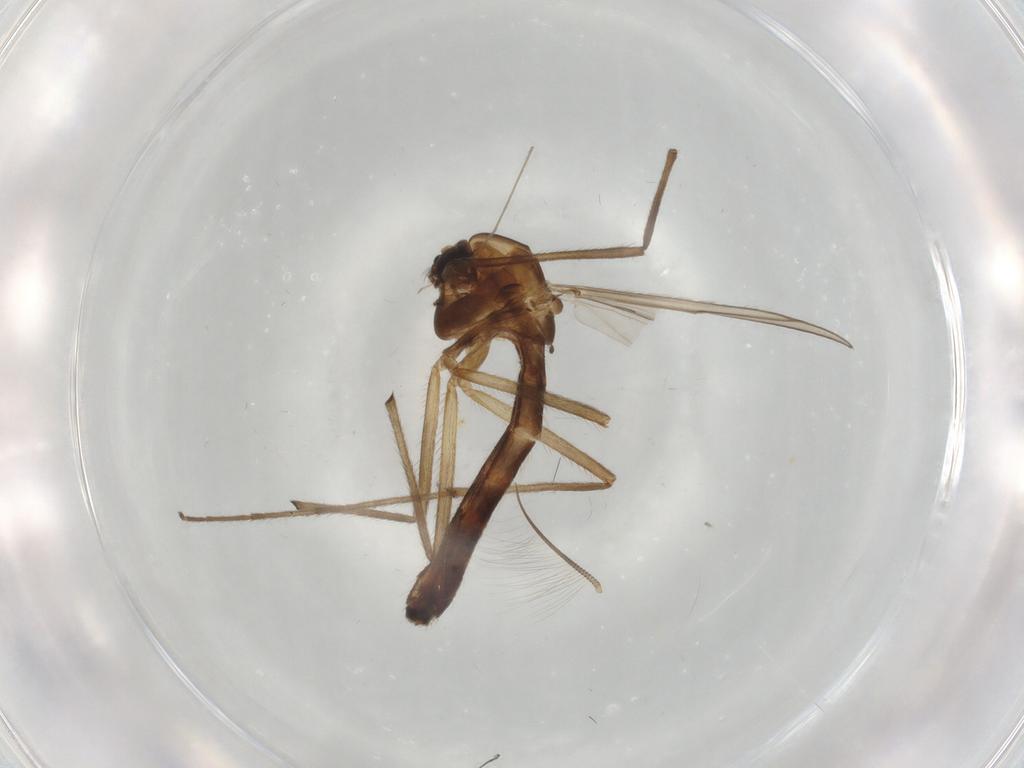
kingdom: Animalia
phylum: Arthropoda
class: Insecta
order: Diptera
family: Chironomidae
